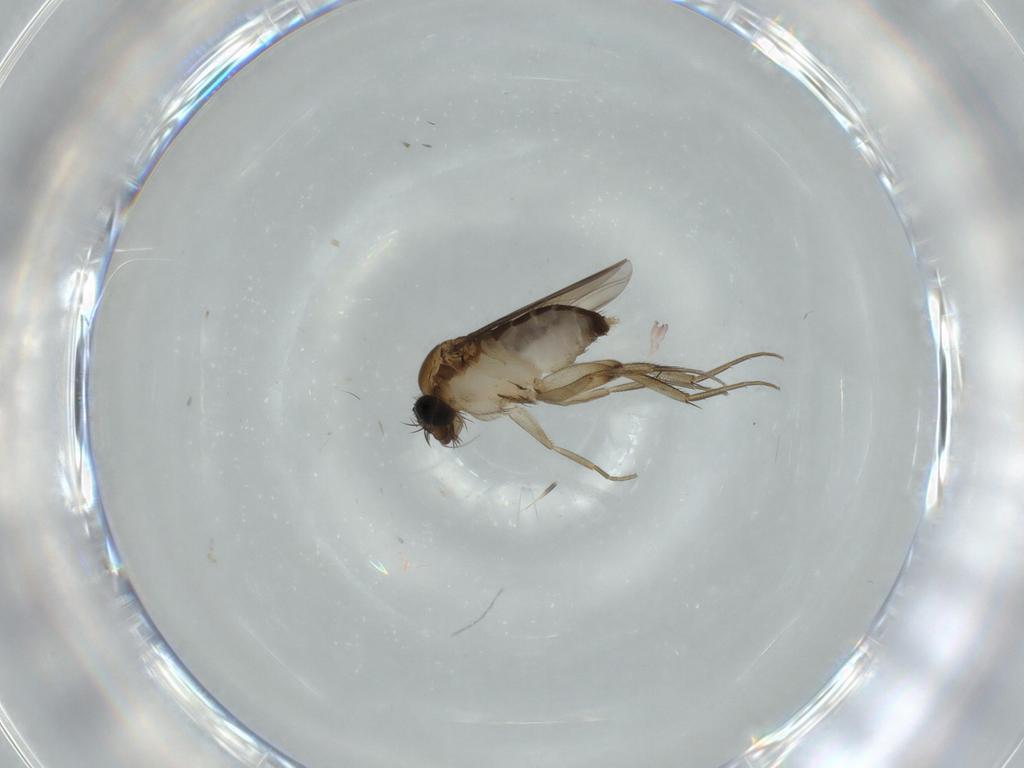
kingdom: Animalia
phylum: Arthropoda
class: Insecta
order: Diptera
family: Phoridae
